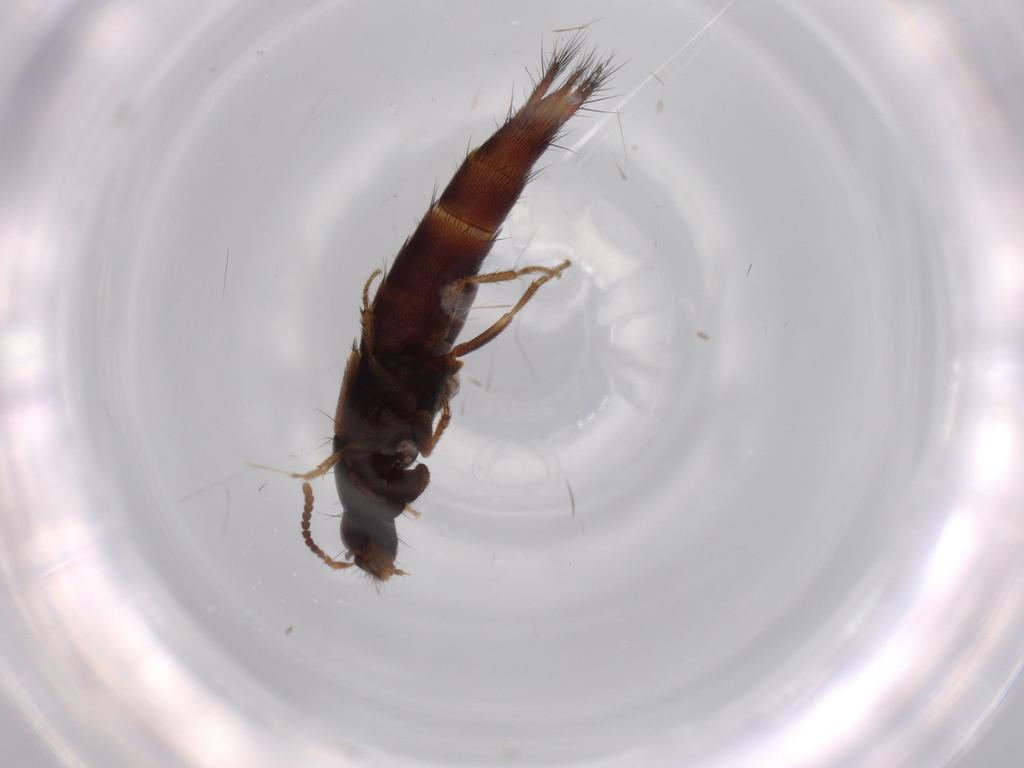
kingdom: Animalia
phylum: Arthropoda
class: Insecta
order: Coleoptera
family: Staphylinidae
